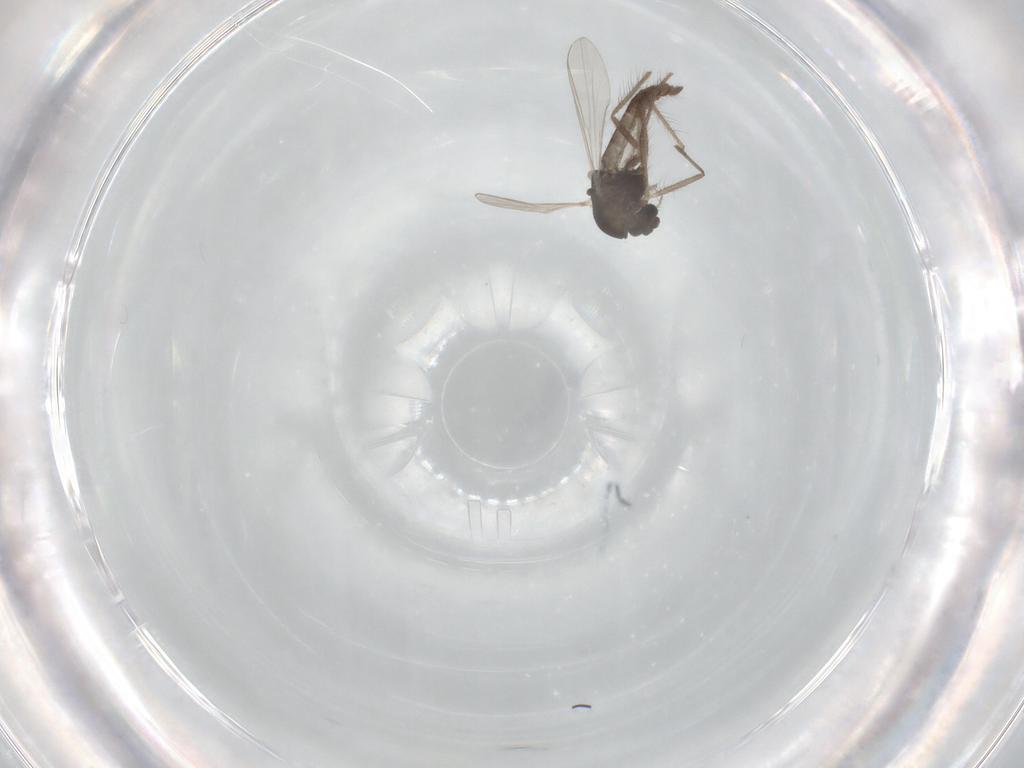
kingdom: Animalia
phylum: Arthropoda
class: Insecta
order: Diptera
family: Chironomidae
